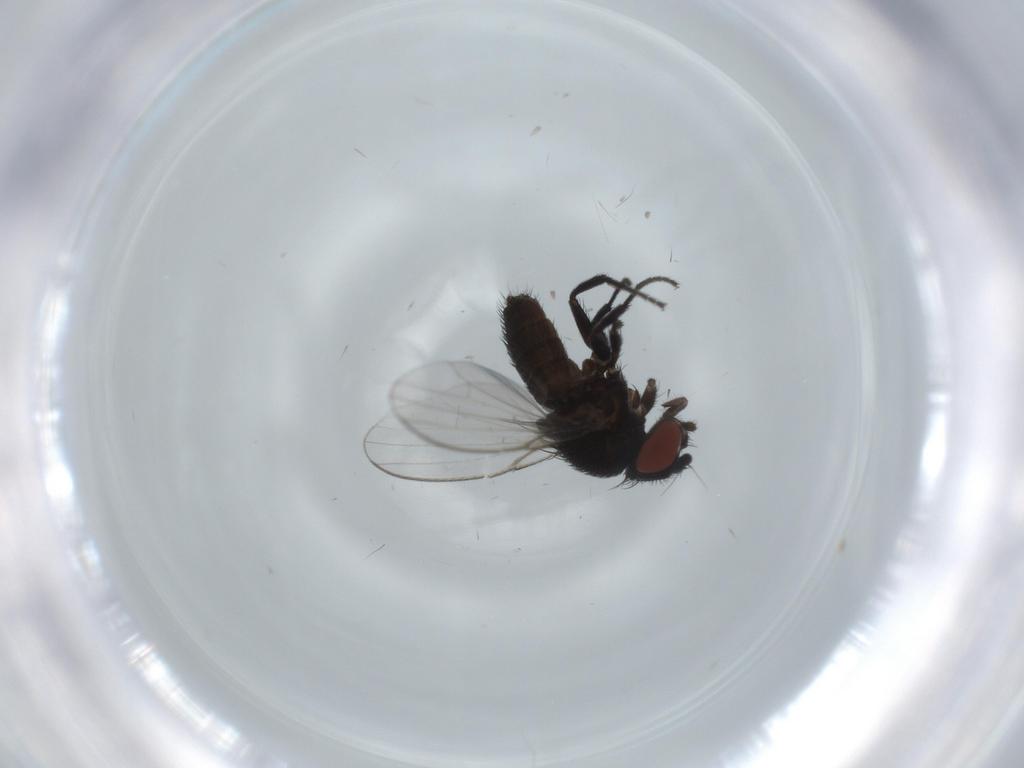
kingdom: Animalia
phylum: Arthropoda
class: Insecta
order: Diptera
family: Milichiidae
